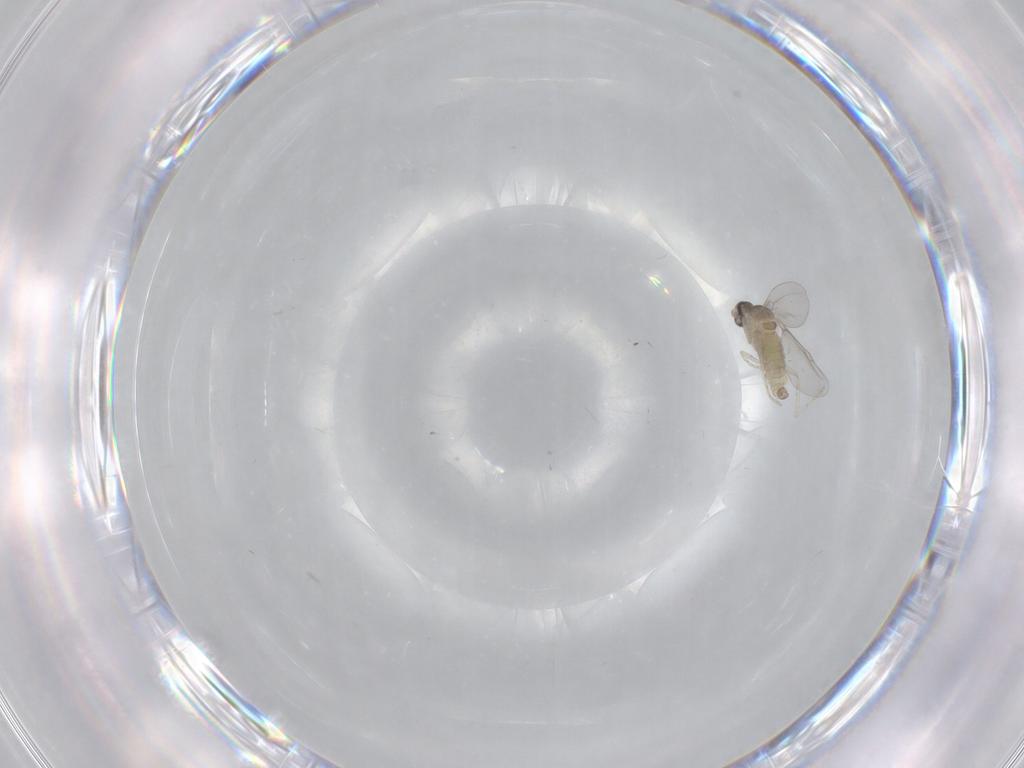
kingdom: Animalia
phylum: Arthropoda
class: Insecta
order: Diptera
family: Cecidomyiidae
